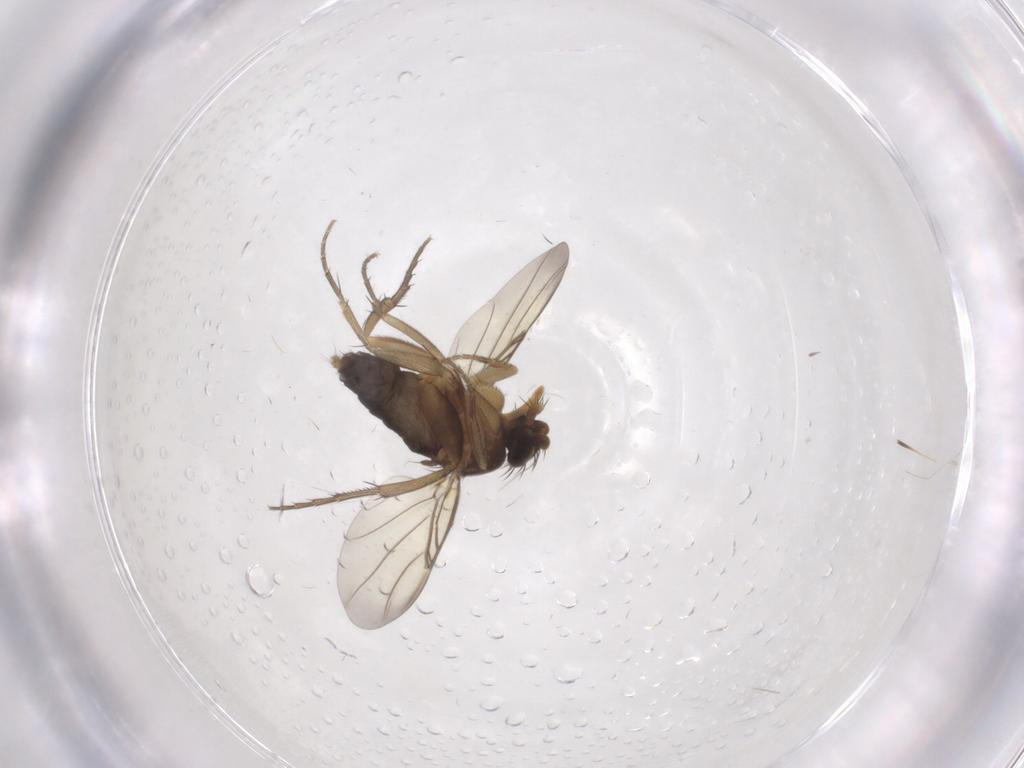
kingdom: Animalia
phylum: Arthropoda
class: Insecta
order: Diptera
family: Phoridae
